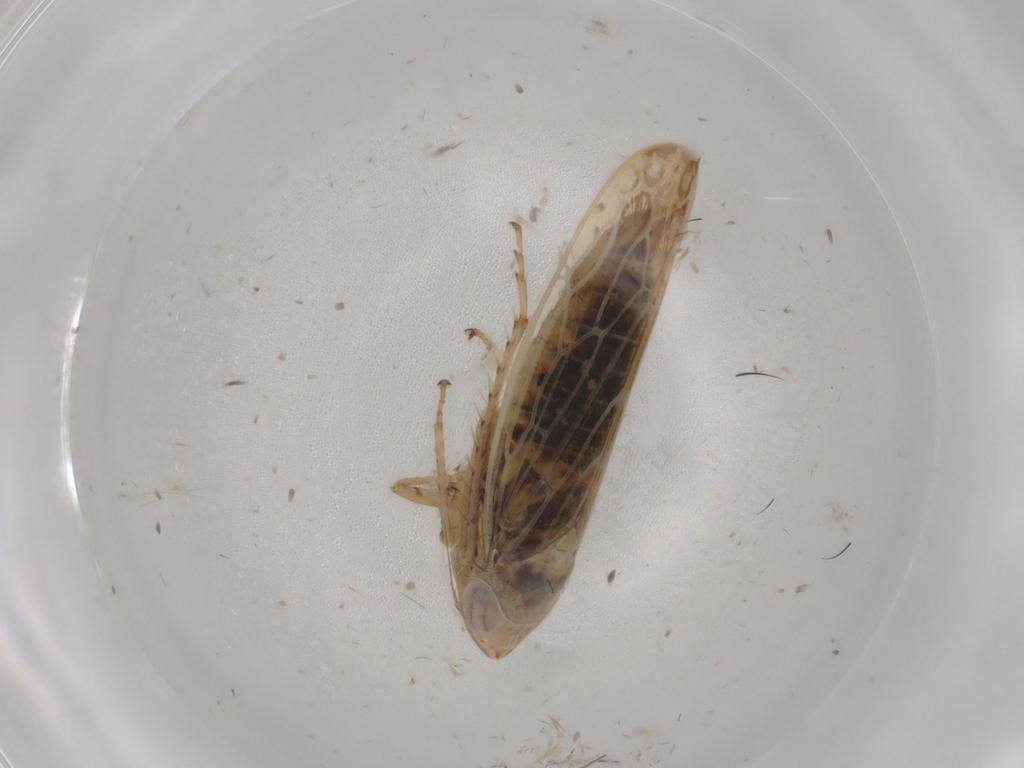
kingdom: Animalia
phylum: Arthropoda
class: Insecta
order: Hemiptera
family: Cicadellidae
